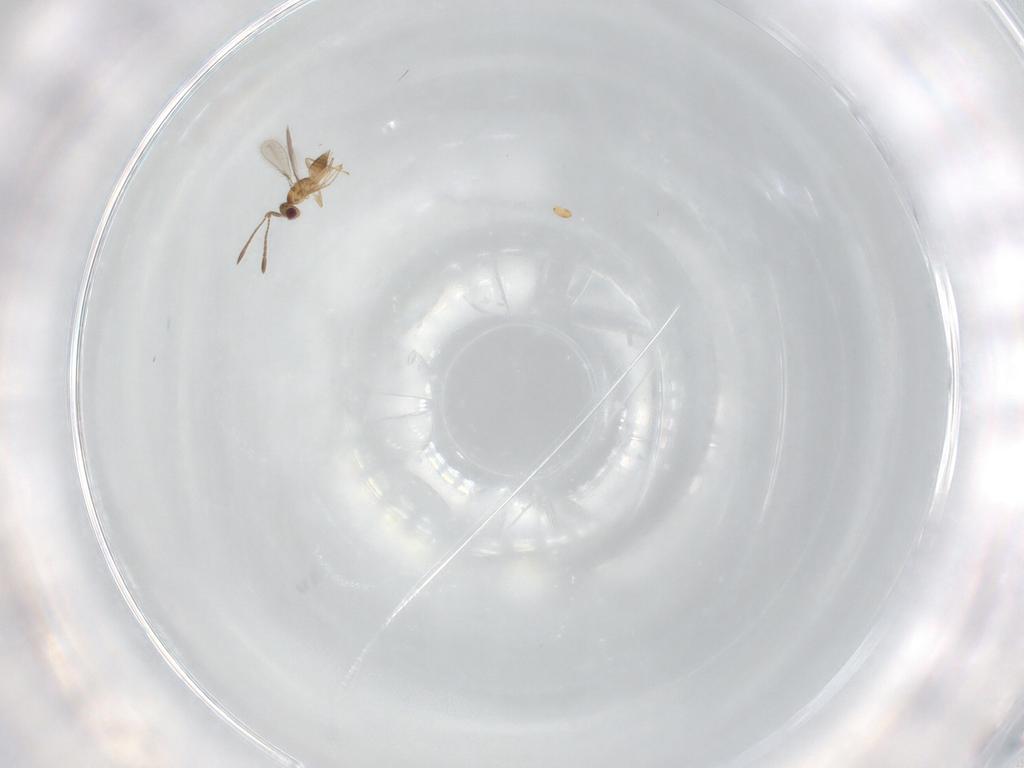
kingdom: Animalia
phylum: Arthropoda
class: Insecta
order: Hymenoptera
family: Mymaridae
